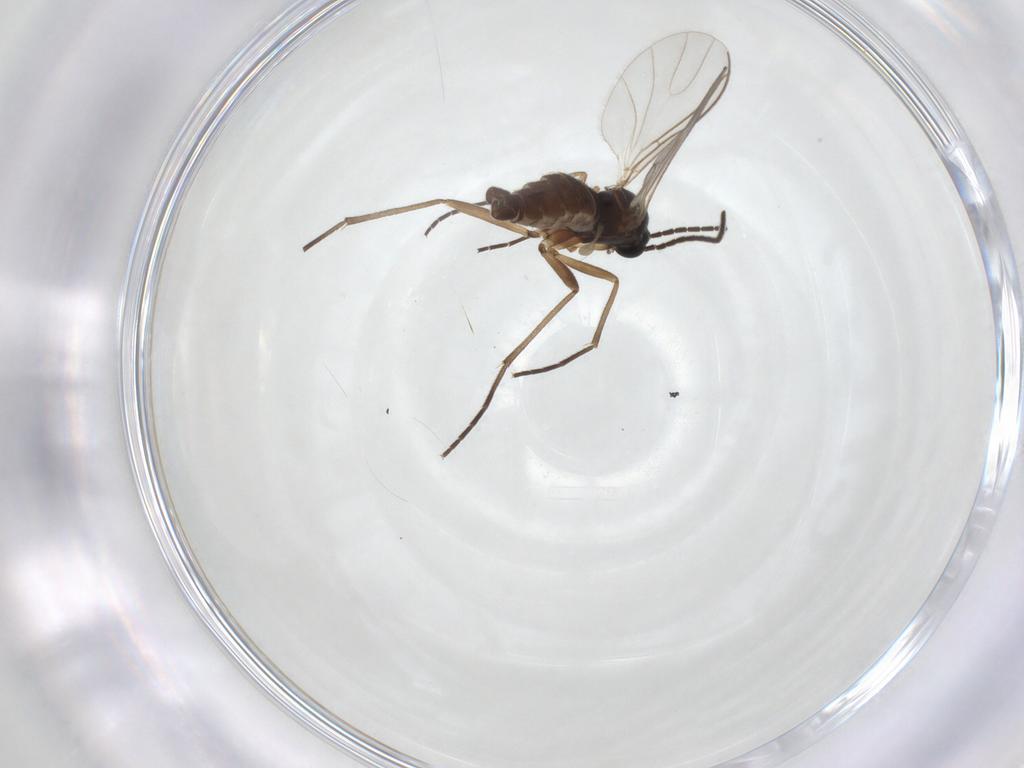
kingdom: Animalia
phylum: Arthropoda
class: Insecta
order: Diptera
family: Sciaridae
